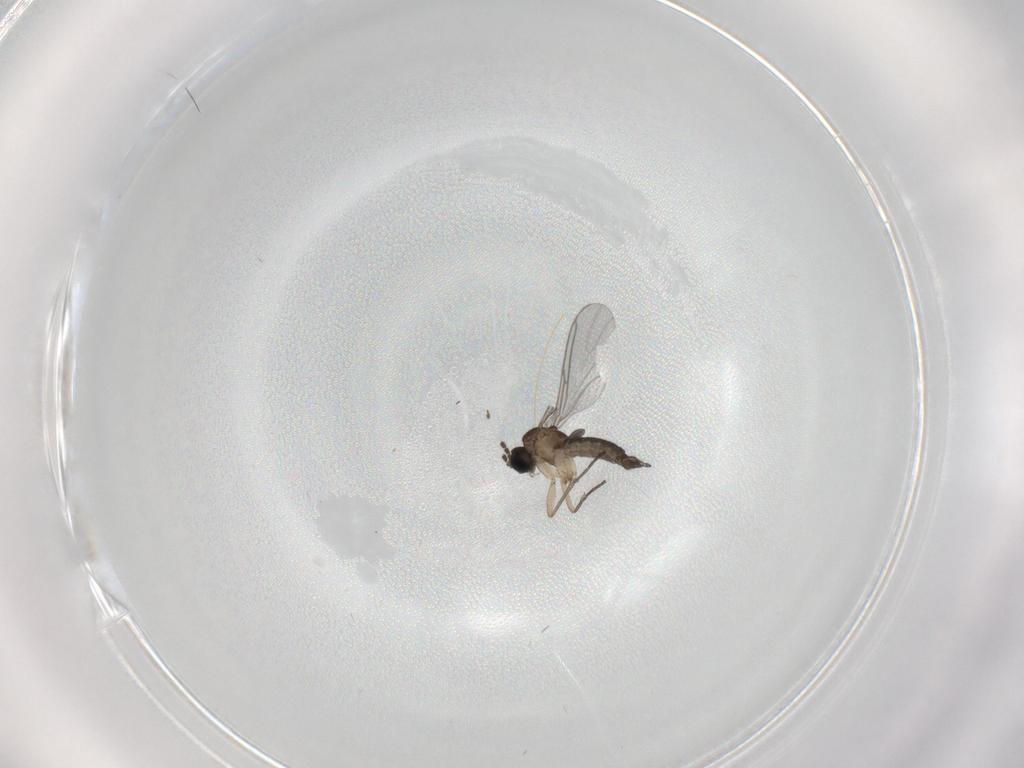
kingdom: Animalia
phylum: Arthropoda
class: Insecta
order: Diptera
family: Sciaridae
